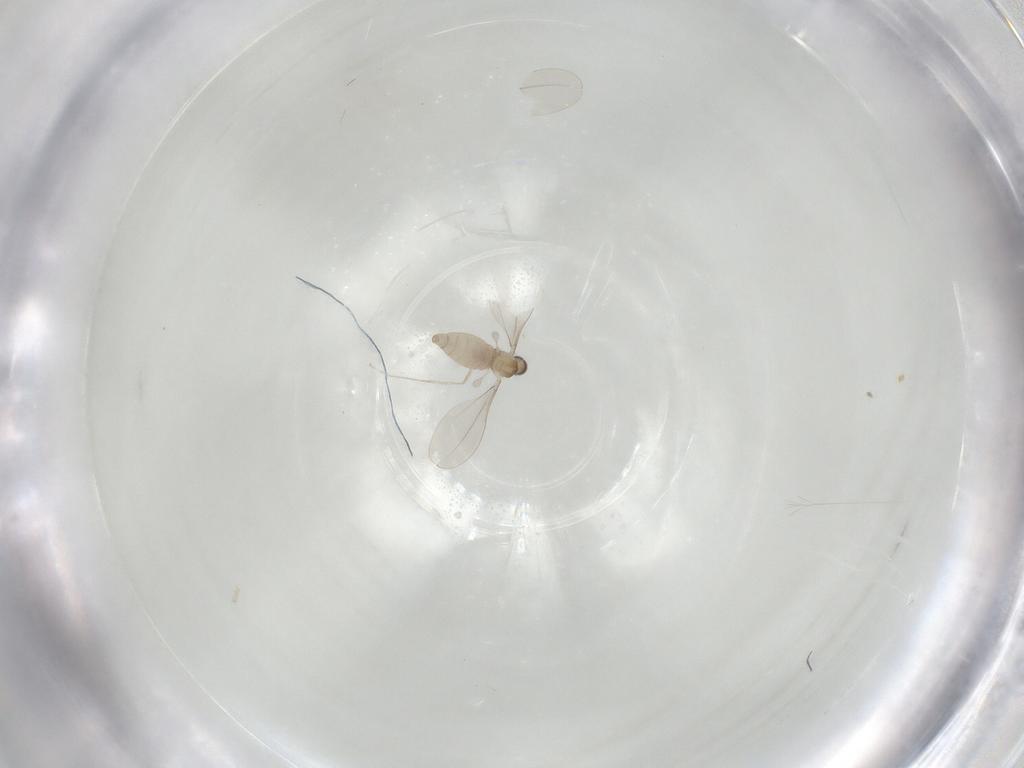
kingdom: Animalia
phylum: Arthropoda
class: Insecta
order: Diptera
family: Cecidomyiidae
